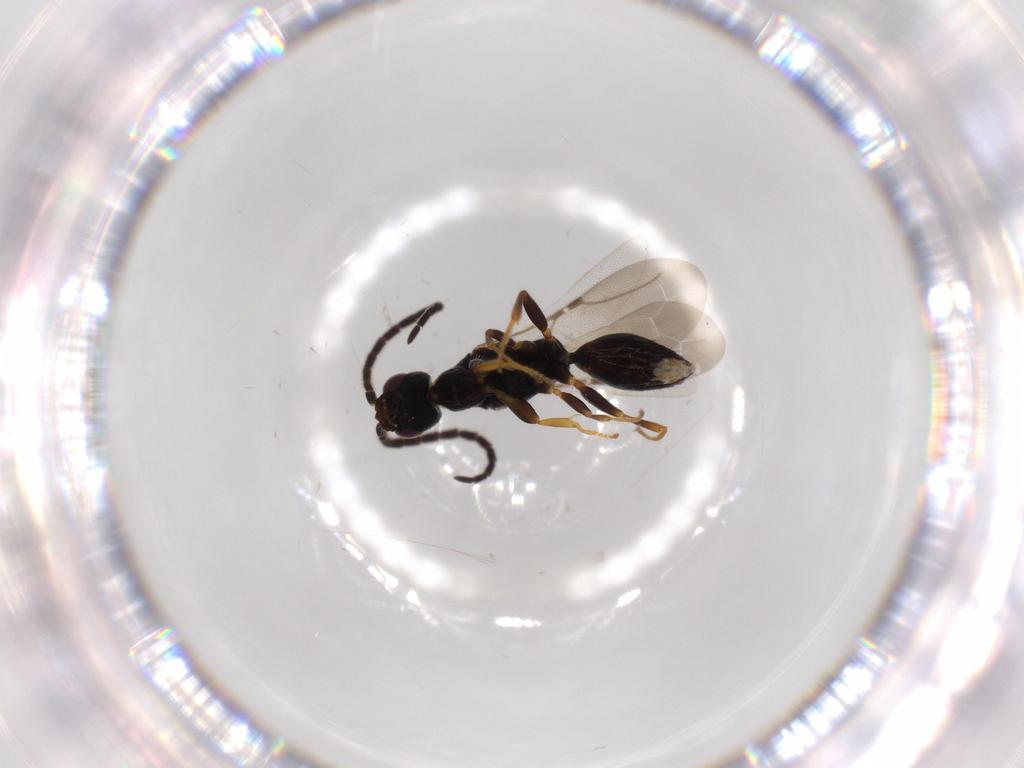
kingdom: Animalia
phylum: Arthropoda
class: Insecta
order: Hymenoptera
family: Bethylidae
